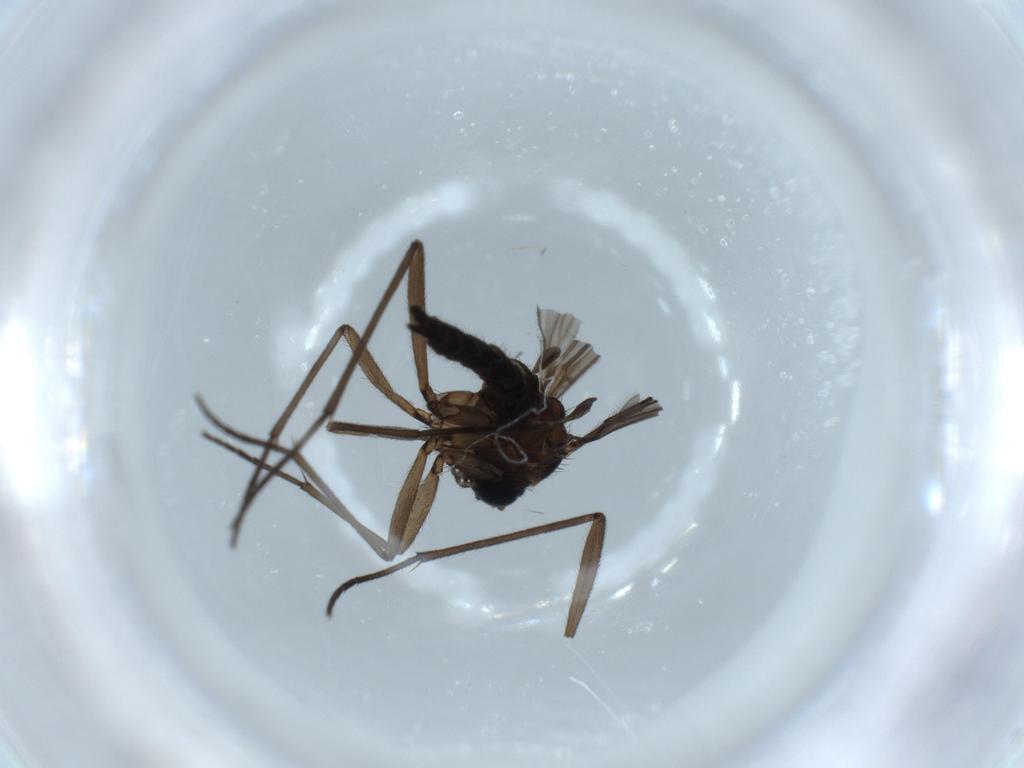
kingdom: Animalia
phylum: Arthropoda
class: Insecta
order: Diptera
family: Sciaridae
